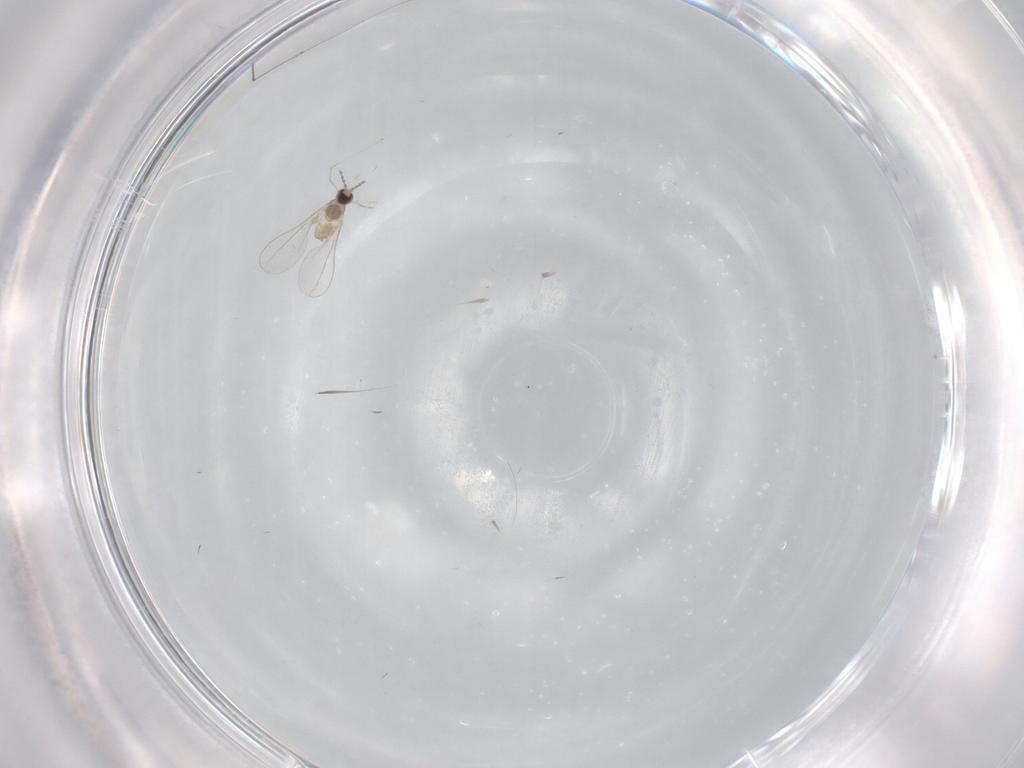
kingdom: Animalia
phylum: Arthropoda
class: Insecta
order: Diptera
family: Cecidomyiidae
